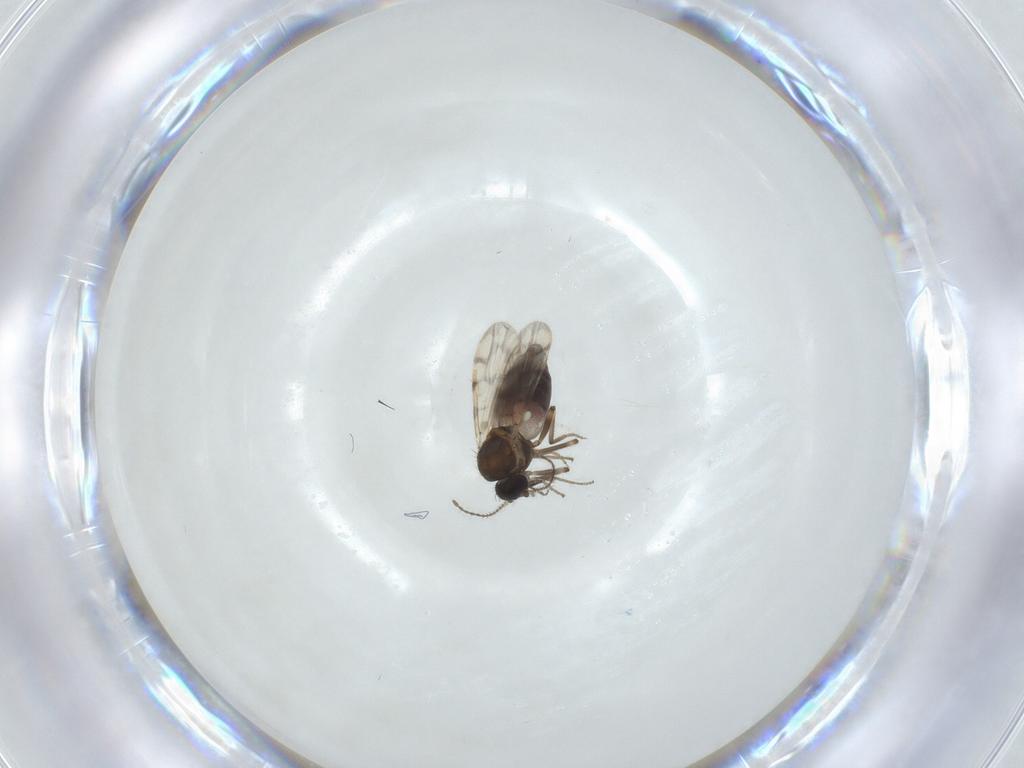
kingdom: Animalia
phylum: Arthropoda
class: Insecta
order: Diptera
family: Ceratopogonidae
